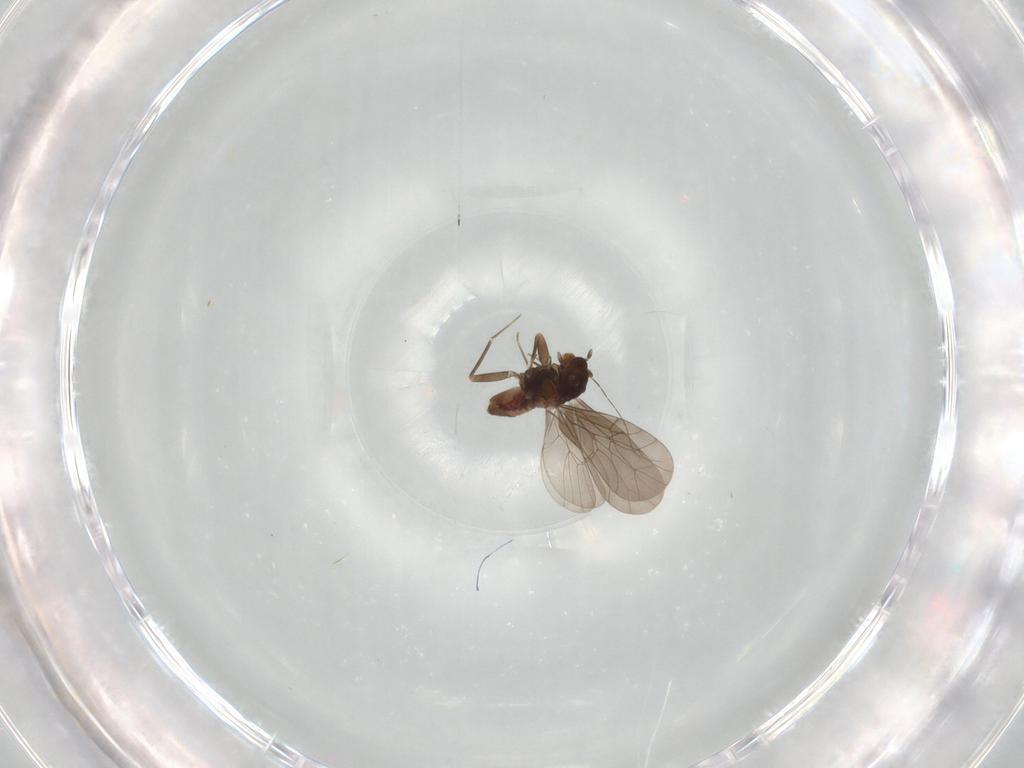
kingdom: Animalia
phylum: Arthropoda
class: Insecta
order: Psocodea
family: Lepidopsocidae
